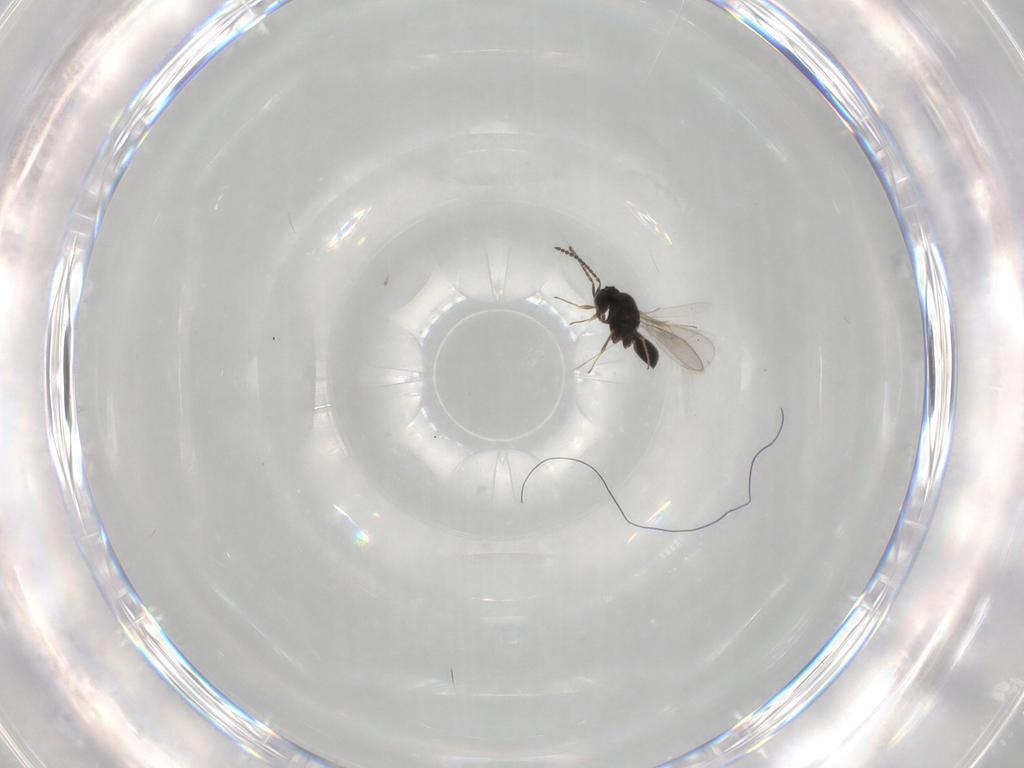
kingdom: Animalia
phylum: Arthropoda
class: Insecta
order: Hymenoptera
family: Scelionidae
